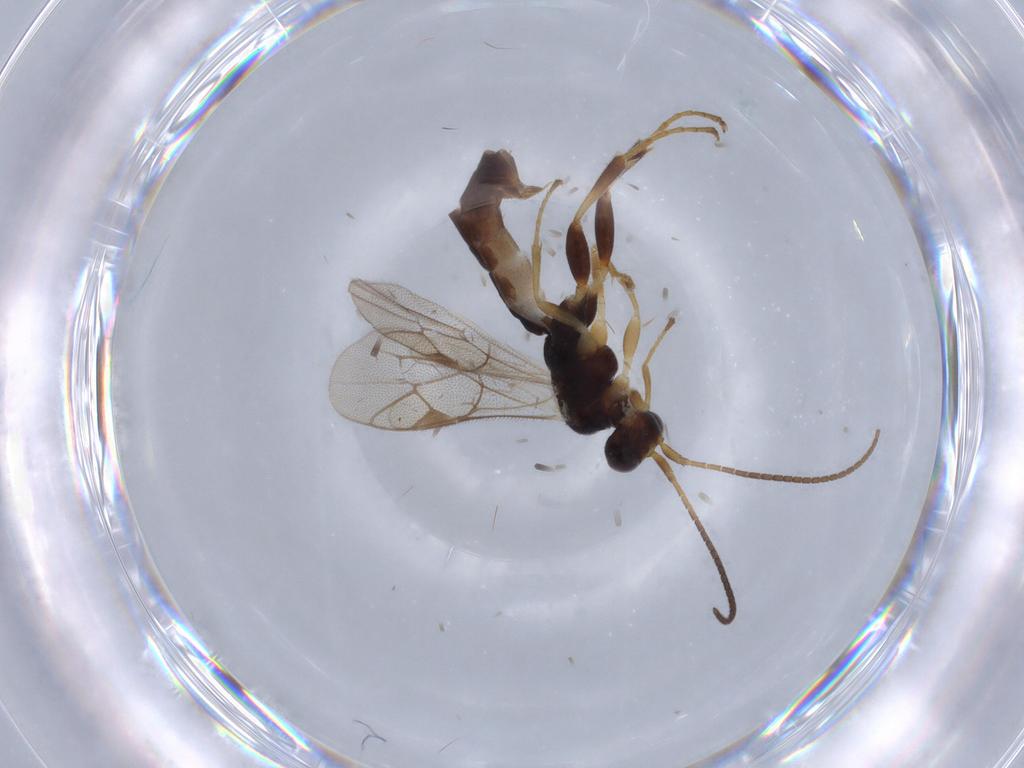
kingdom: Animalia
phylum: Arthropoda
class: Insecta
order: Hymenoptera
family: Ichneumonidae
